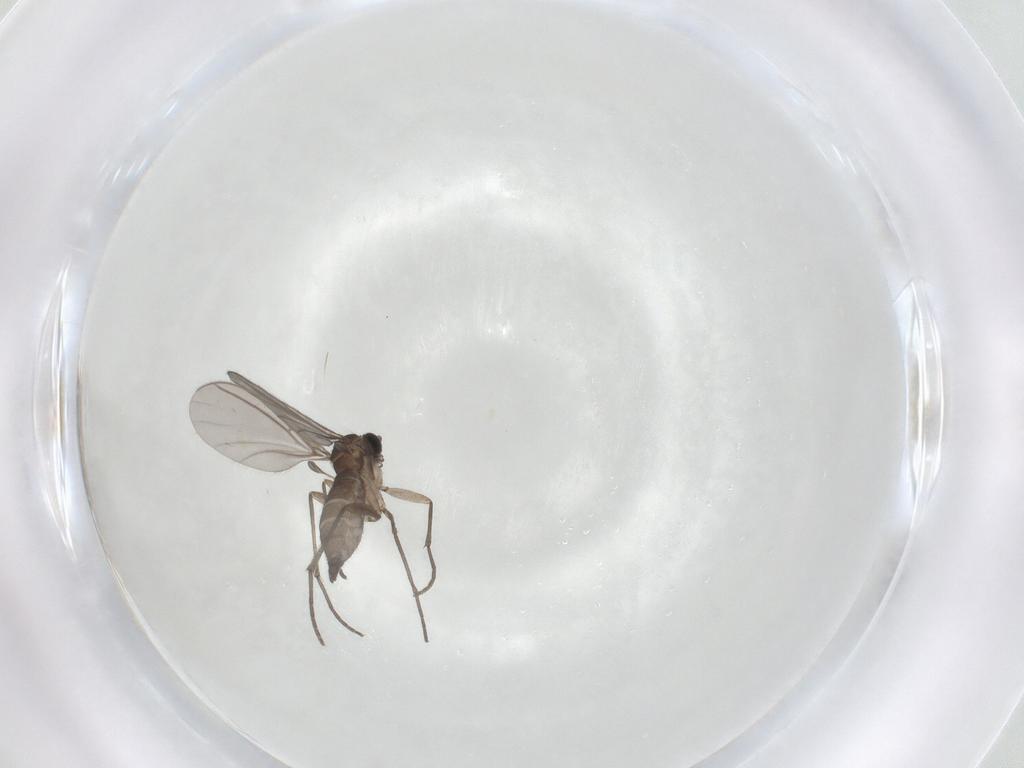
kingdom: Animalia
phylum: Arthropoda
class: Insecta
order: Diptera
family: Sciaridae
